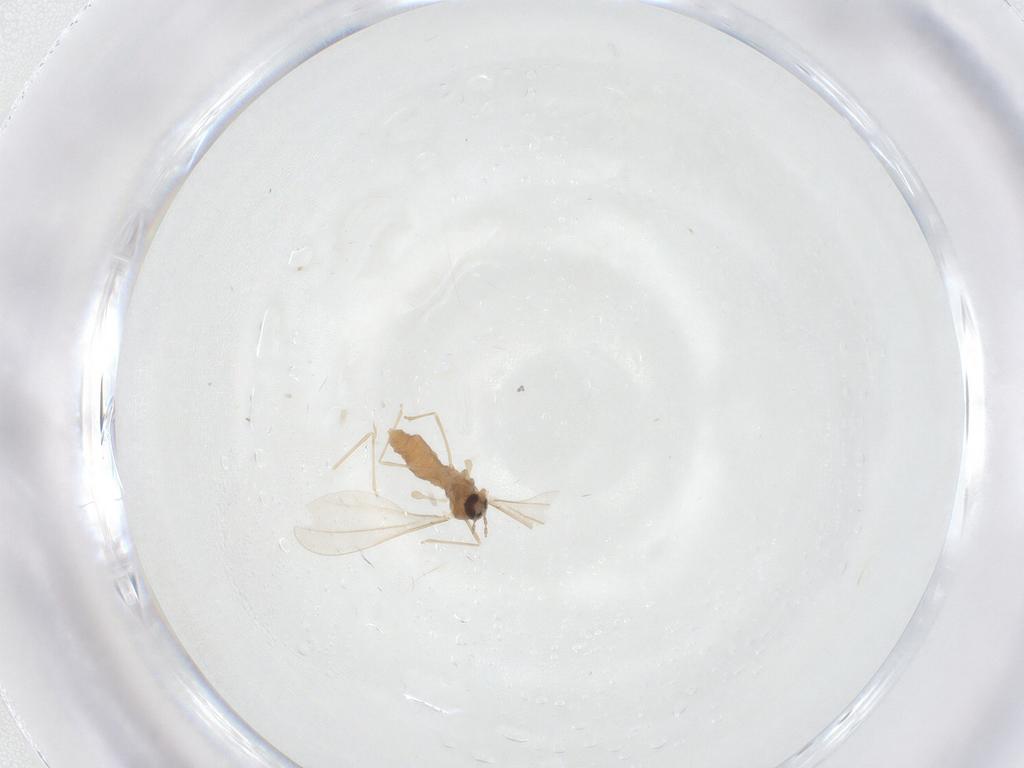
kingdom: Animalia
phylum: Arthropoda
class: Insecta
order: Diptera
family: Cecidomyiidae
